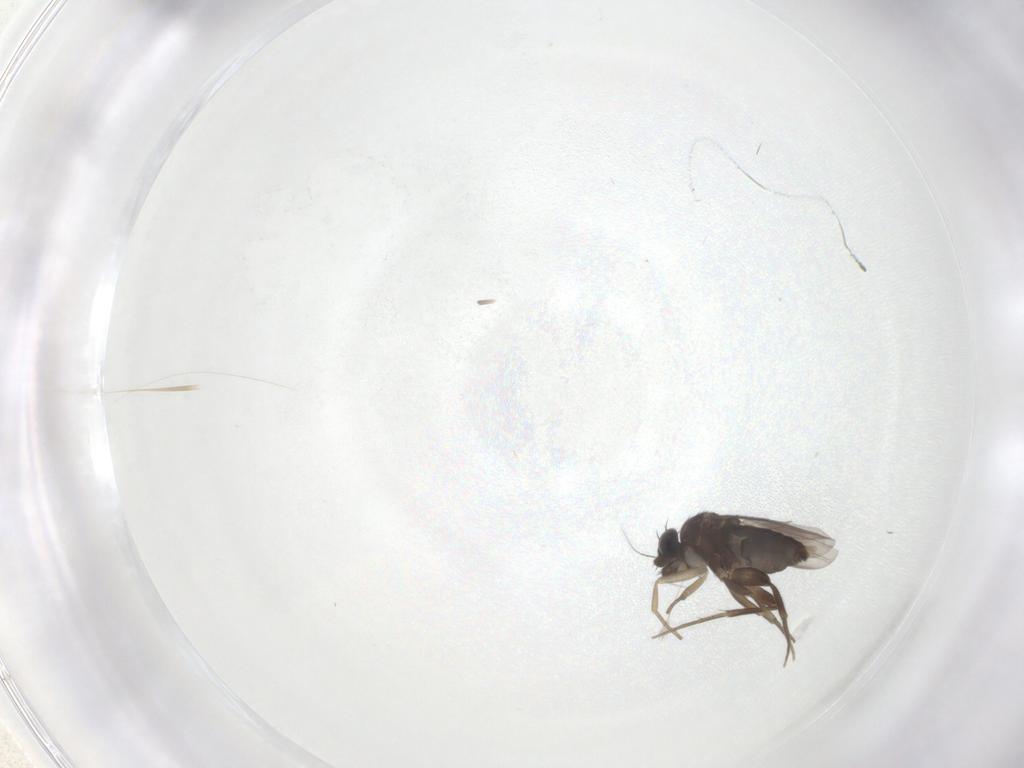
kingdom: Animalia
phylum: Arthropoda
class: Insecta
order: Diptera
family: Phoridae
